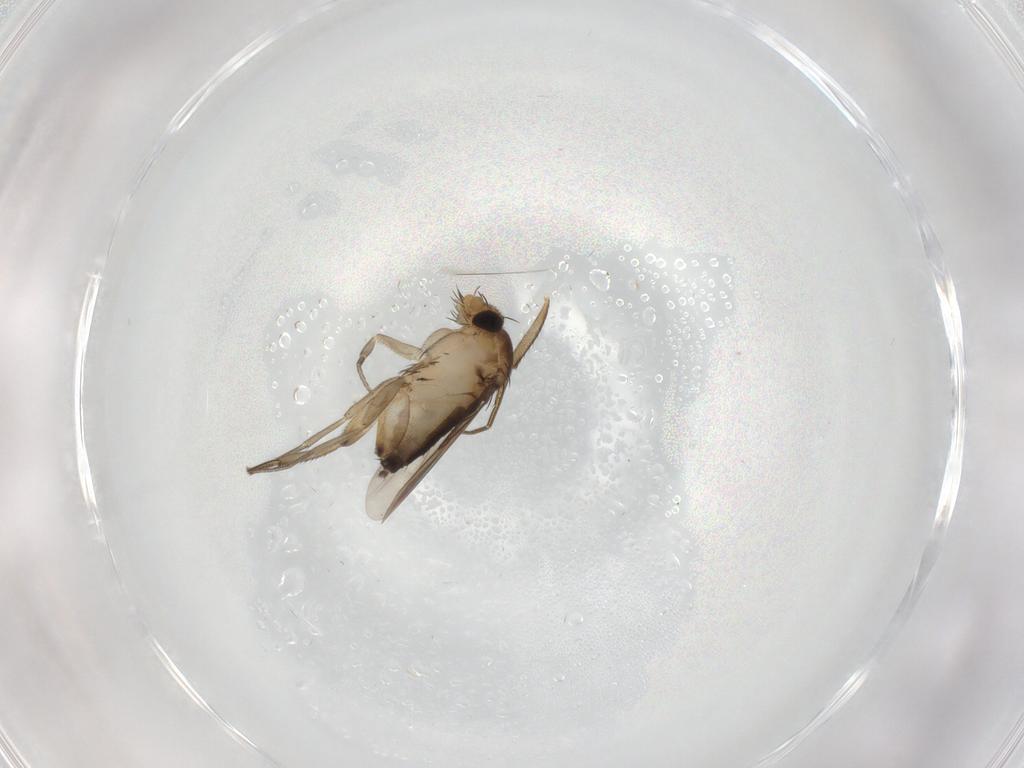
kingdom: Animalia
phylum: Arthropoda
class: Insecta
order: Diptera
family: Phoridae
